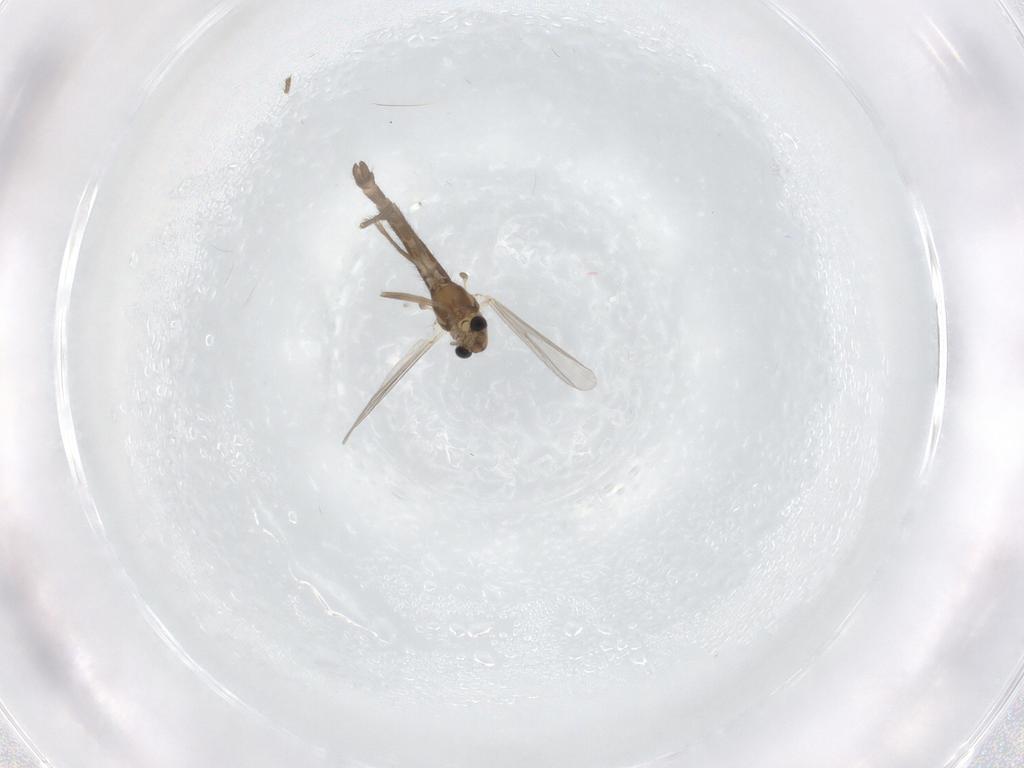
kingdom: Animalia
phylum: Arthropoda
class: Insecta
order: Diptera
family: Chironomidae
